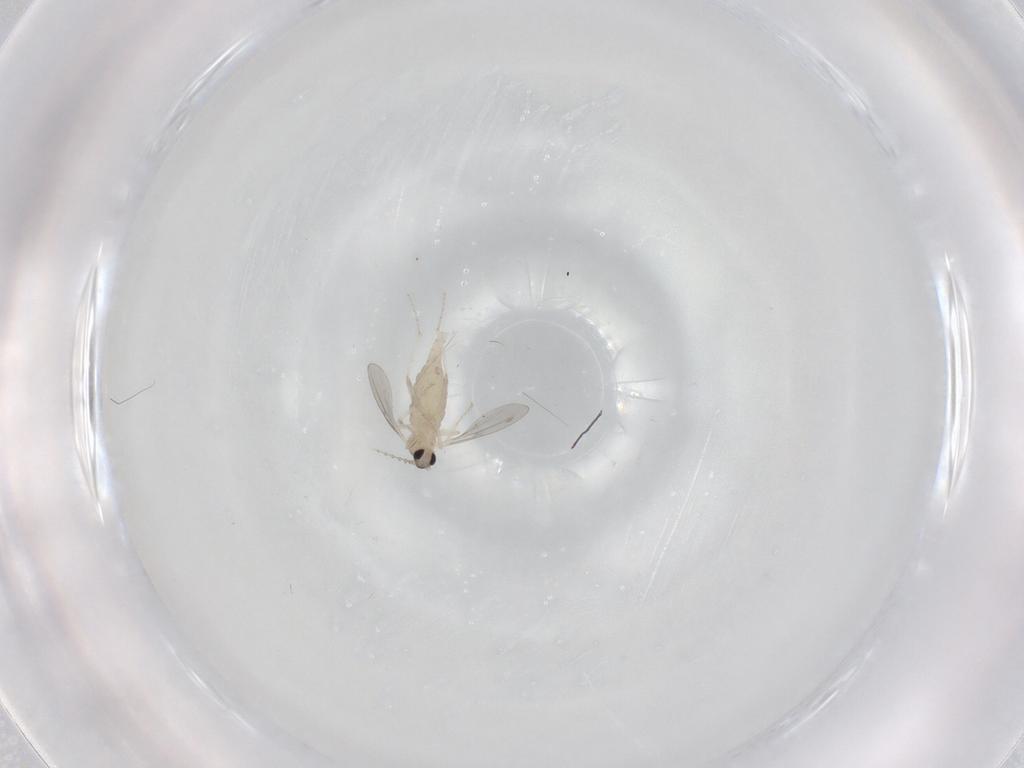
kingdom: Animalia
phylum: Arthropoda
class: Insecta
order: Diptera
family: Cecidomyiidae
